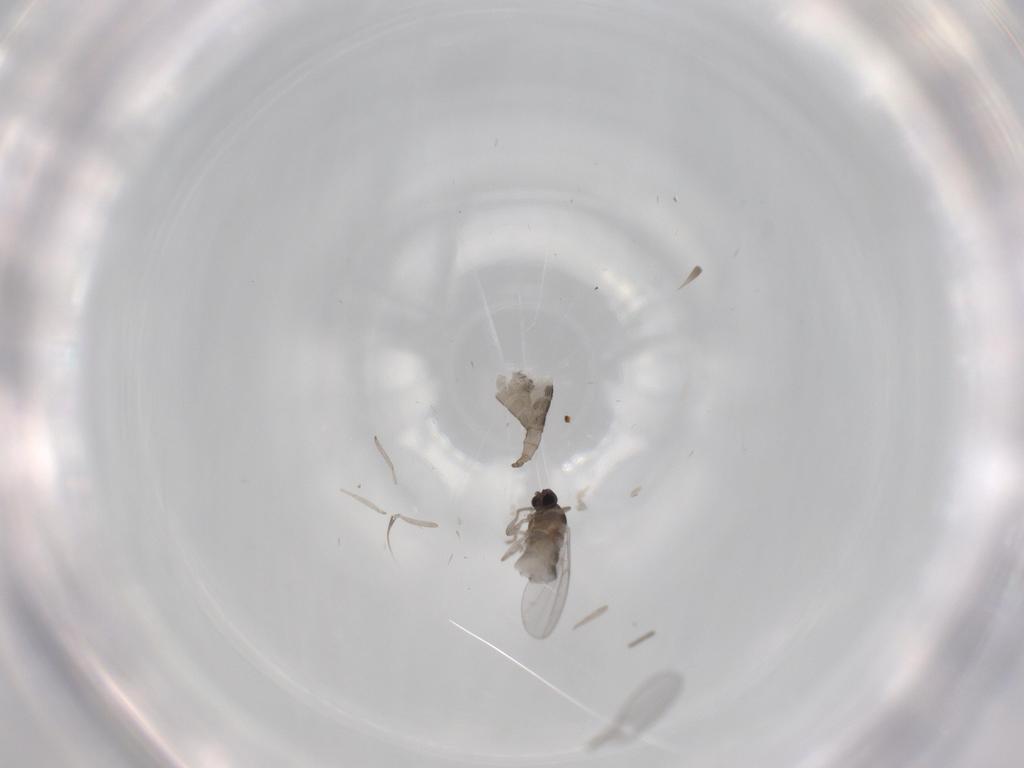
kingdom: Animalia
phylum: Arthropoda
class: Insecta
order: Diptera
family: Cecidomyiidae
